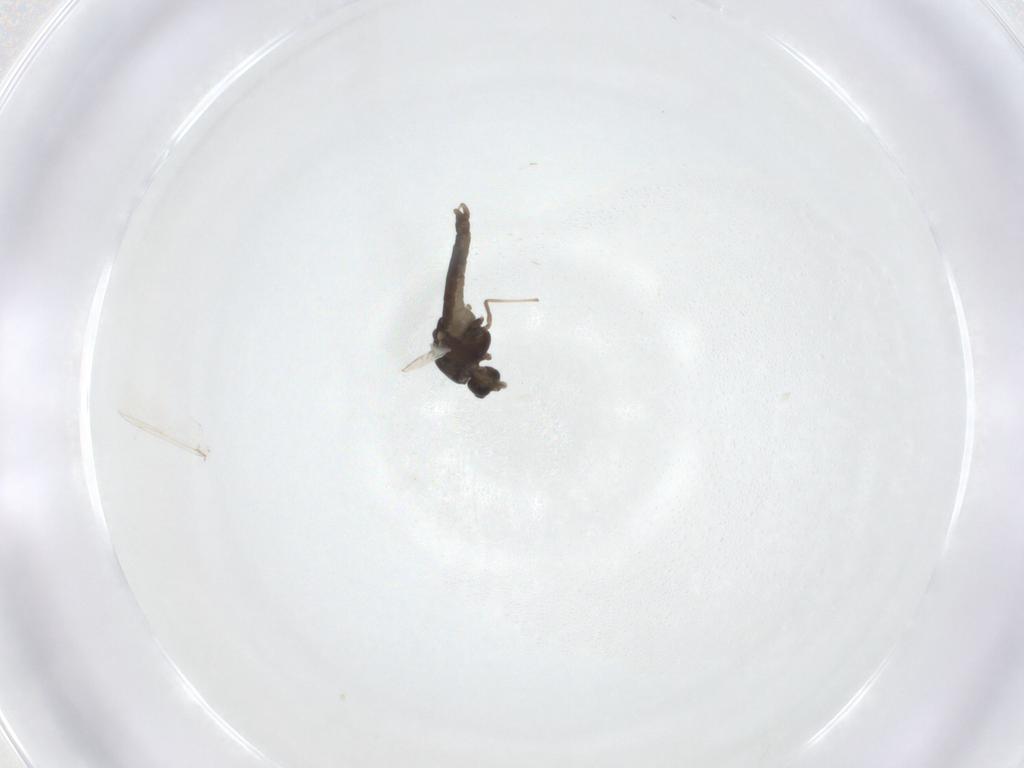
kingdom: Animalia
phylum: Arthropoda
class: Insecta
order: Diptera
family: Chironomidae
